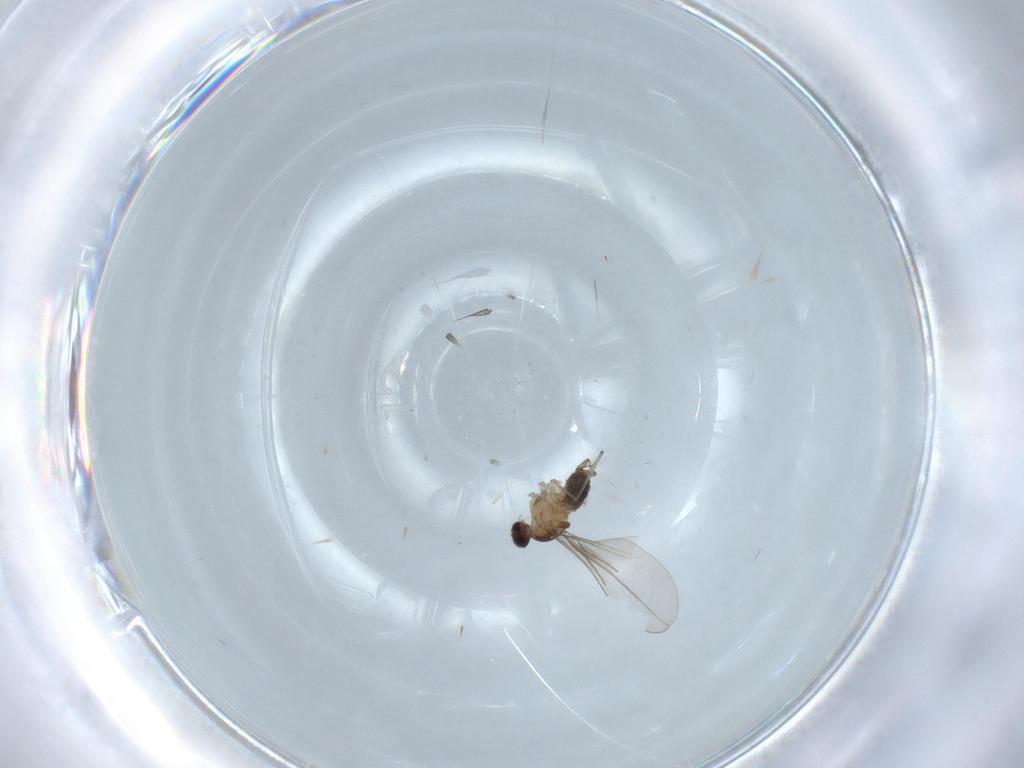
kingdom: Animalia
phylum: Arthropoda
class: Insecta
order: Diptera
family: Cecidomyiidae
